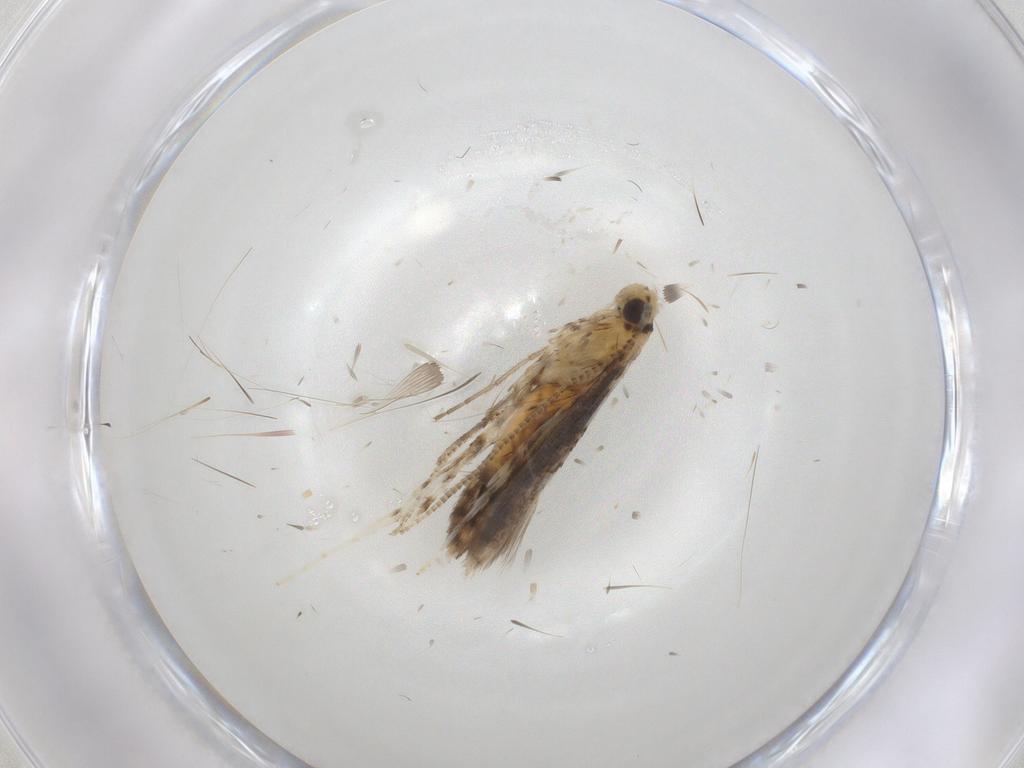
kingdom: Animalia
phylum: Arthropoda
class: Insecta
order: Lepidoptera
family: Gracillariidae
